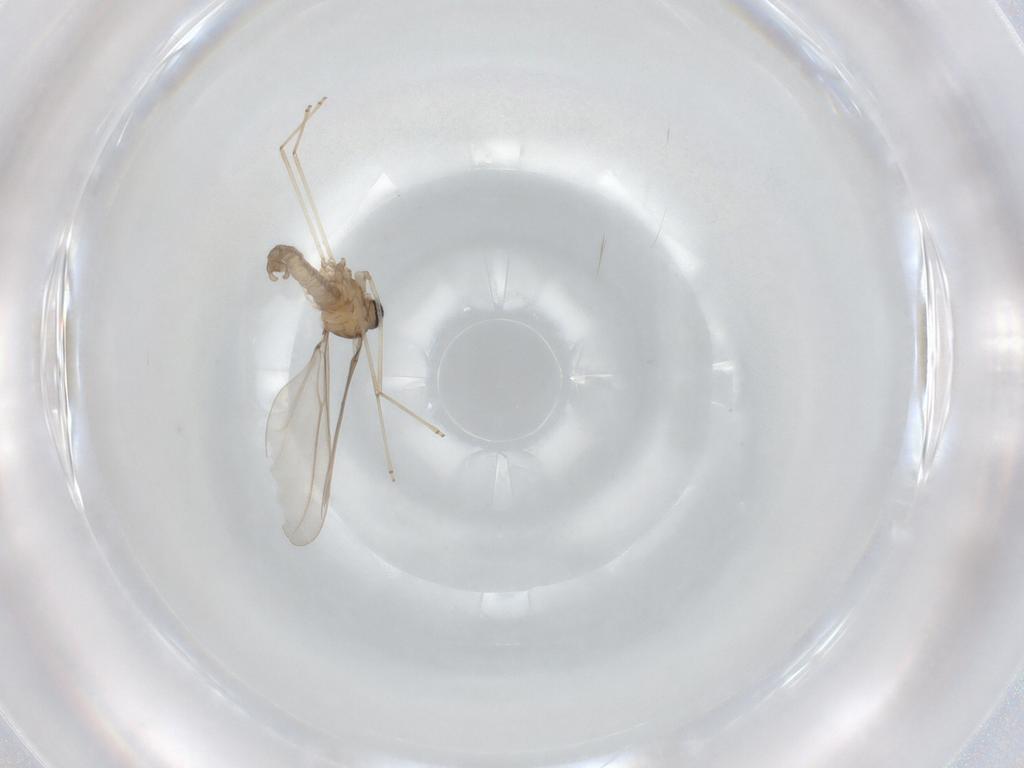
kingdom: Animalia
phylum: Arthropoda
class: Insecta
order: Diptera
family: Cecidomyiidae
